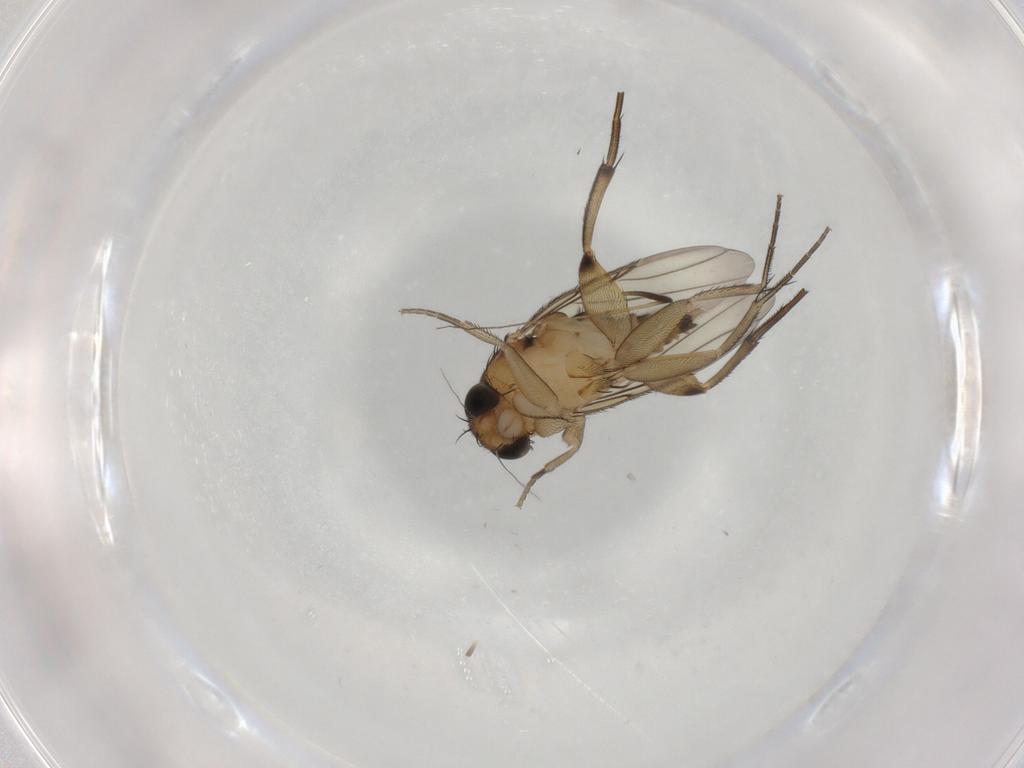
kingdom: Animalia
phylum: Arthropoda
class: Insecta
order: Diptera
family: Phoridae
